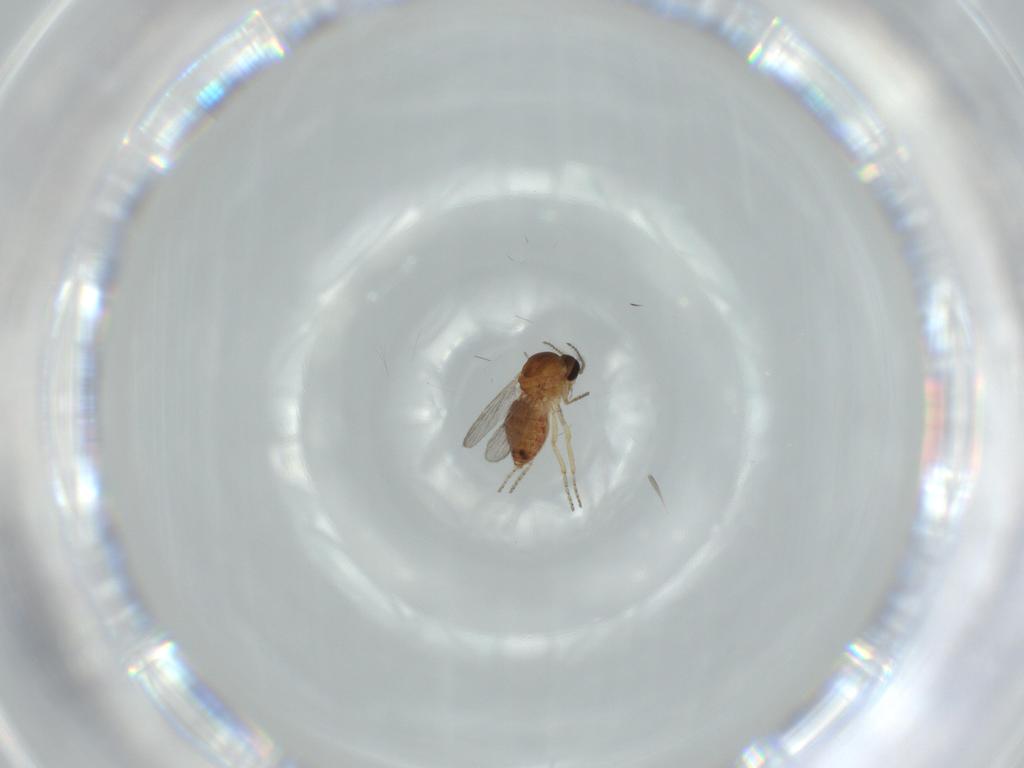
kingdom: Animalia
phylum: Arthropoda
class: Insecta
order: Diptera
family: Ceratopogonidae
